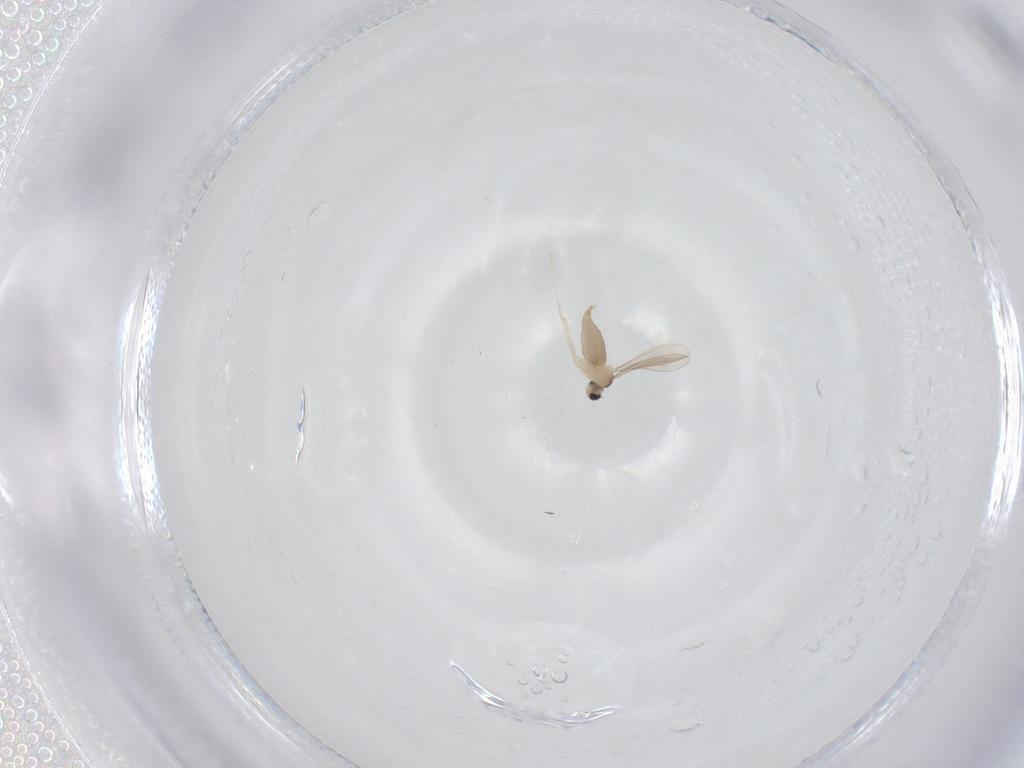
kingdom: Animalia
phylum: Arthropoda
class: Insecta
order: Diptera
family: Cecidomyiidae
